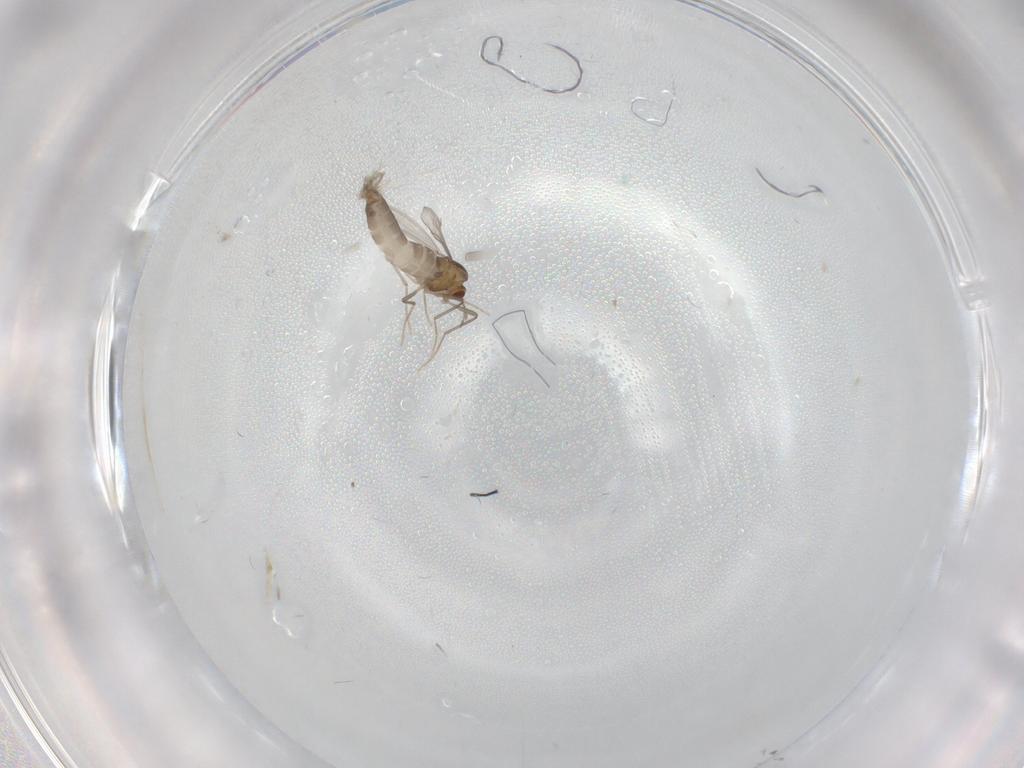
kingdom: Animalia
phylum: Arthropoda
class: Insecta
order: Diptera
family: Chironomidae
